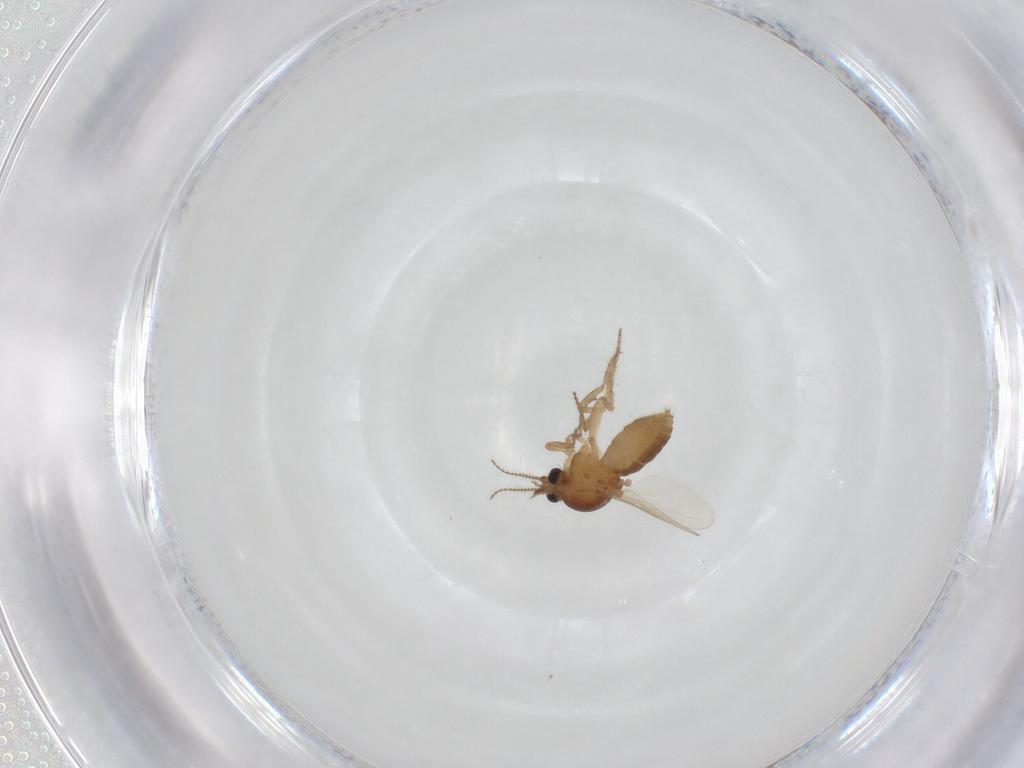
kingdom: Animalia
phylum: Arthropoda
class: Insecta
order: Diptera
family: Ceratopogonidae
